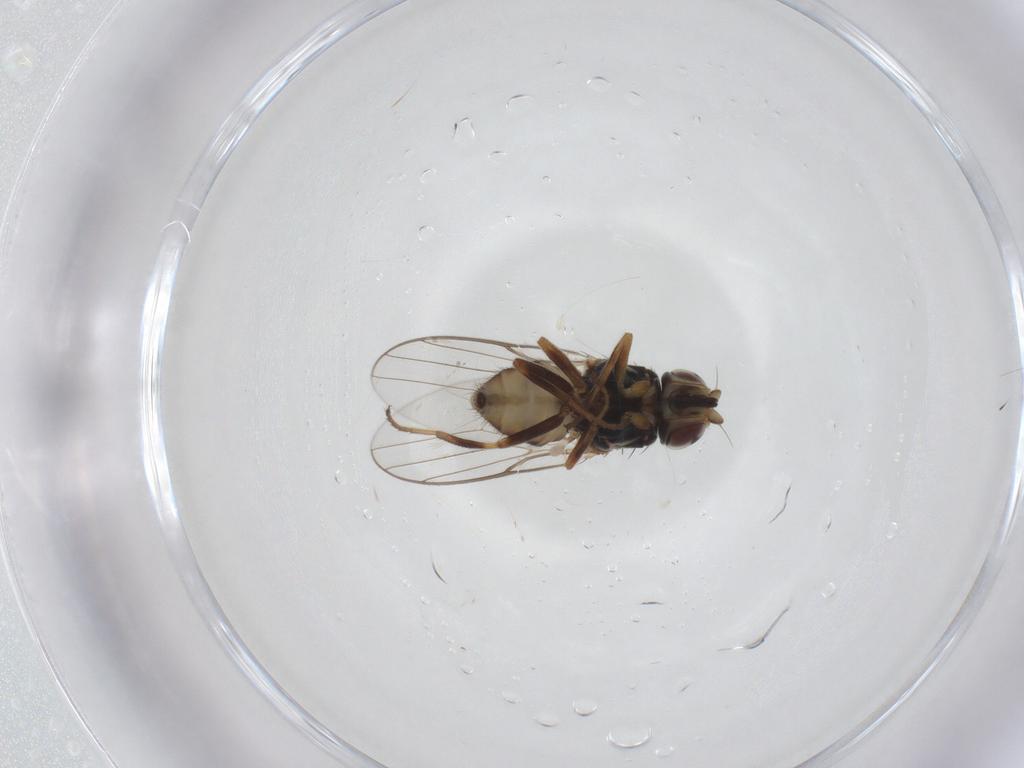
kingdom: Animalia
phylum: Arthropoda
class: Insecta
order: Diptera
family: Chloropidae
